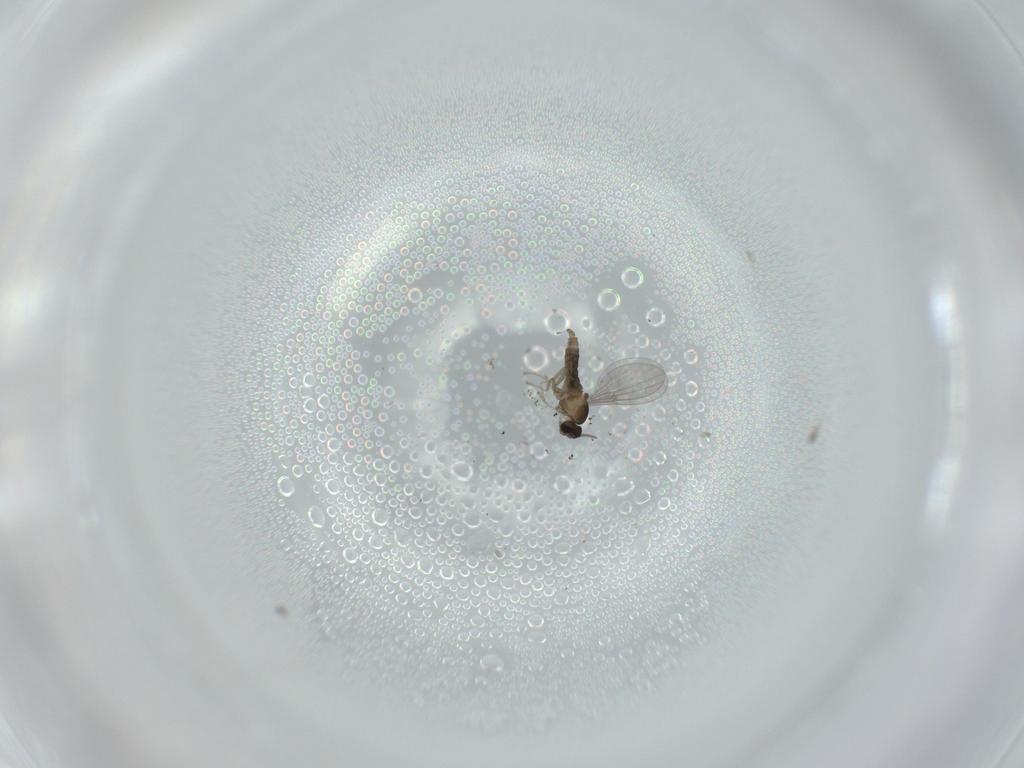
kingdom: Animalia
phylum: Arthropoda
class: Insecta
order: Diptera
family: Cecidomyiidae
